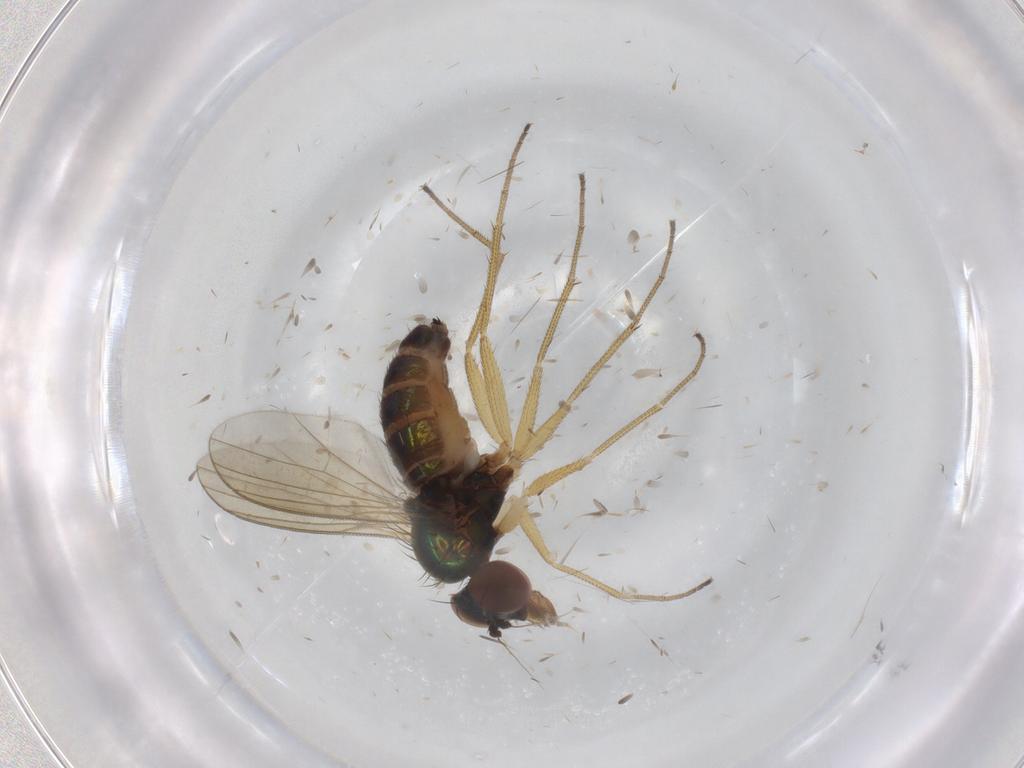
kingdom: Animalia
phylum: Arthropoda
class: Insecta
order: Diptera
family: Dolichopodidae
